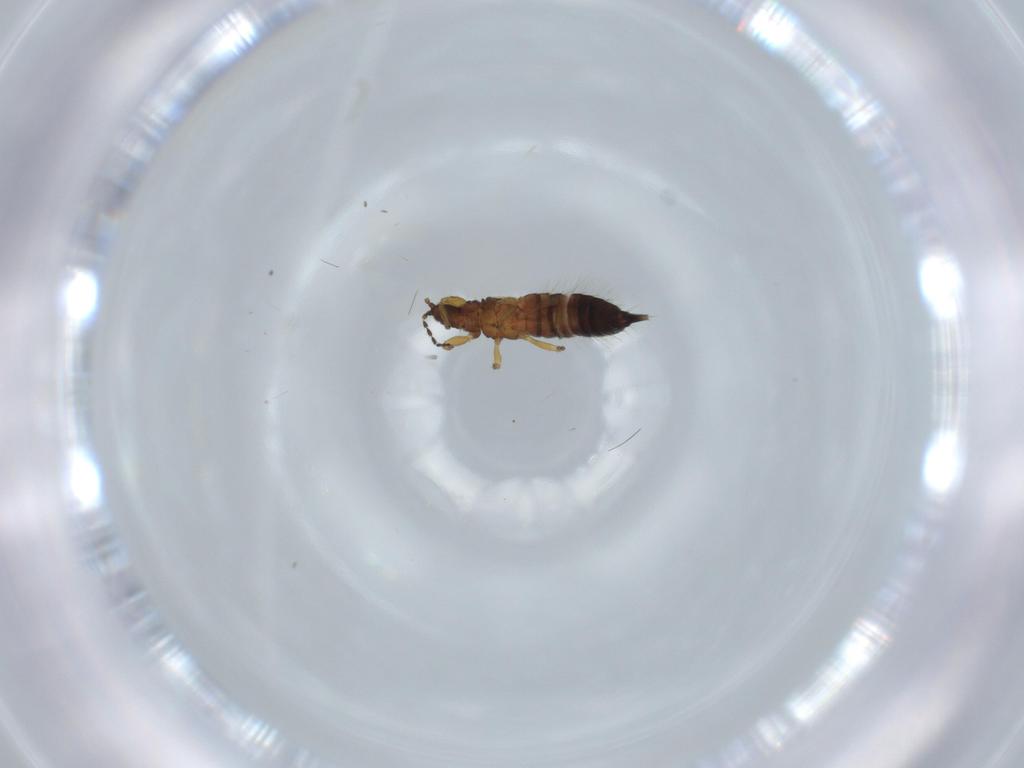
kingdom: Animalia
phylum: Arthropoda
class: Insecta
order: Thysanoptera
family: Phlaeothripidae
